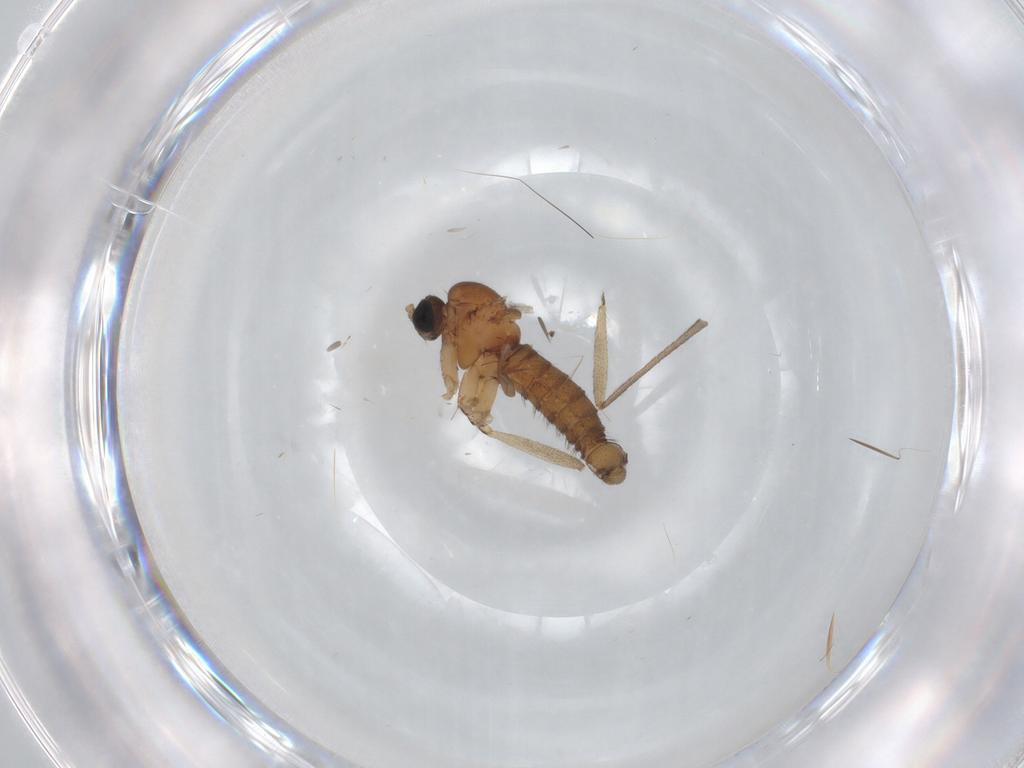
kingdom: Animalia
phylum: Arthropoda
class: Insecta
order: Diptera
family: Sciaridae
